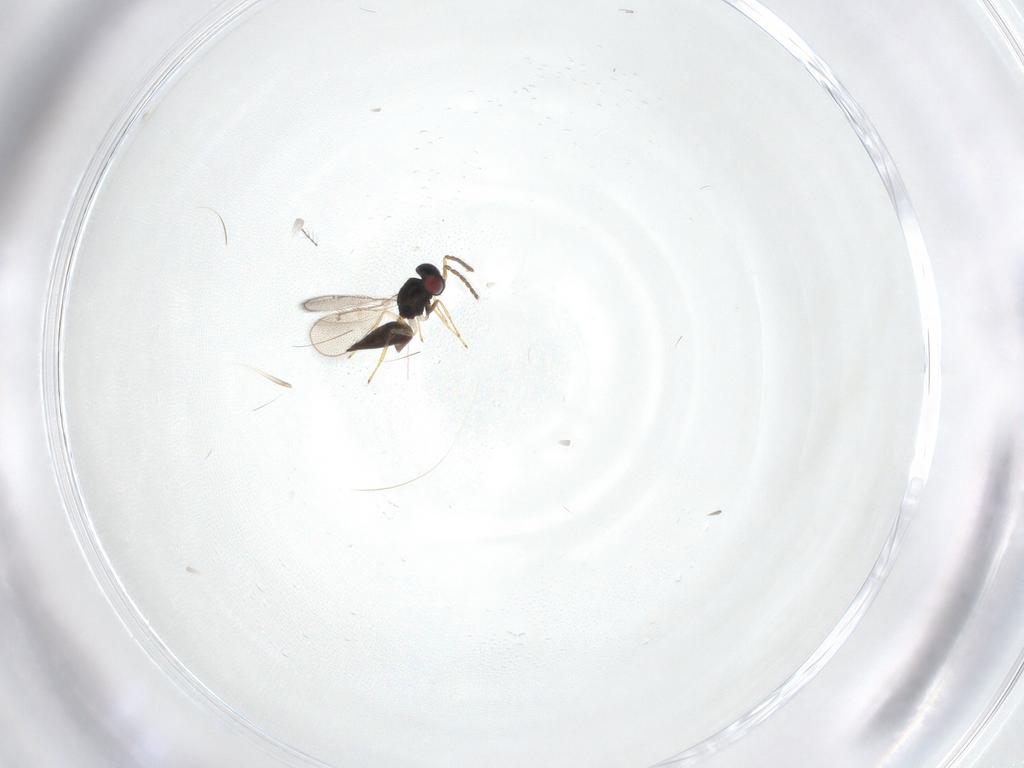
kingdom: Animalia
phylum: Arthropoda
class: Insecta
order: Hymenoptera
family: Eulophidae
